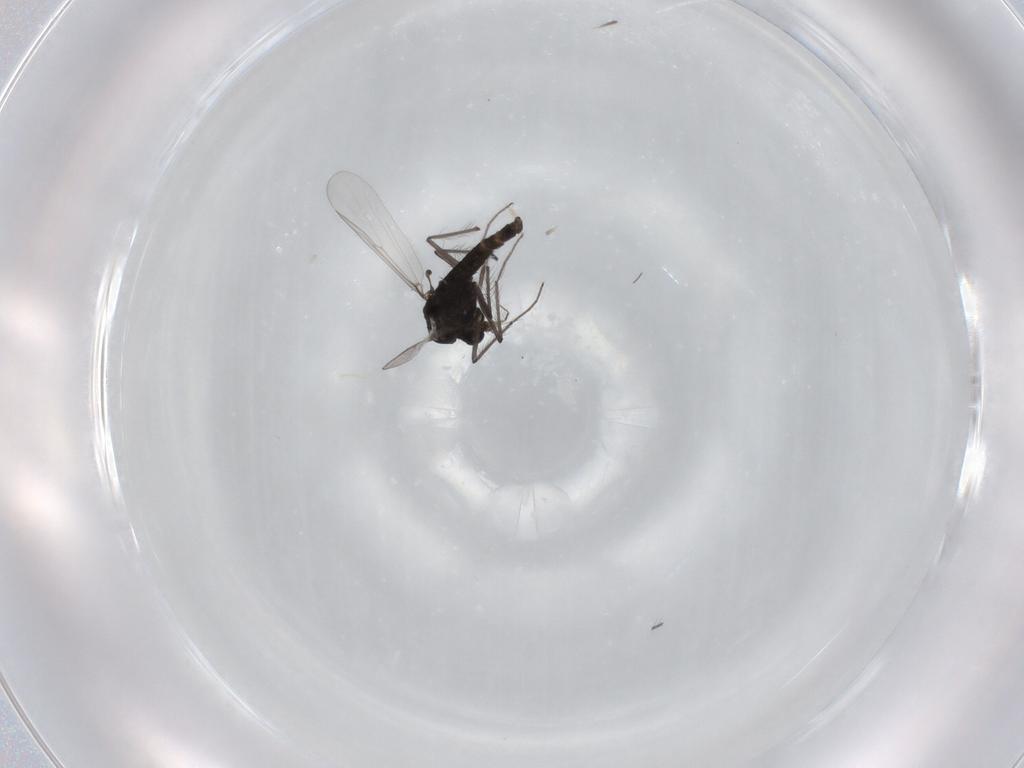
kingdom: Animalia
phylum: Arthropoda
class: Insecta
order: Diptera
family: Chironomidae
